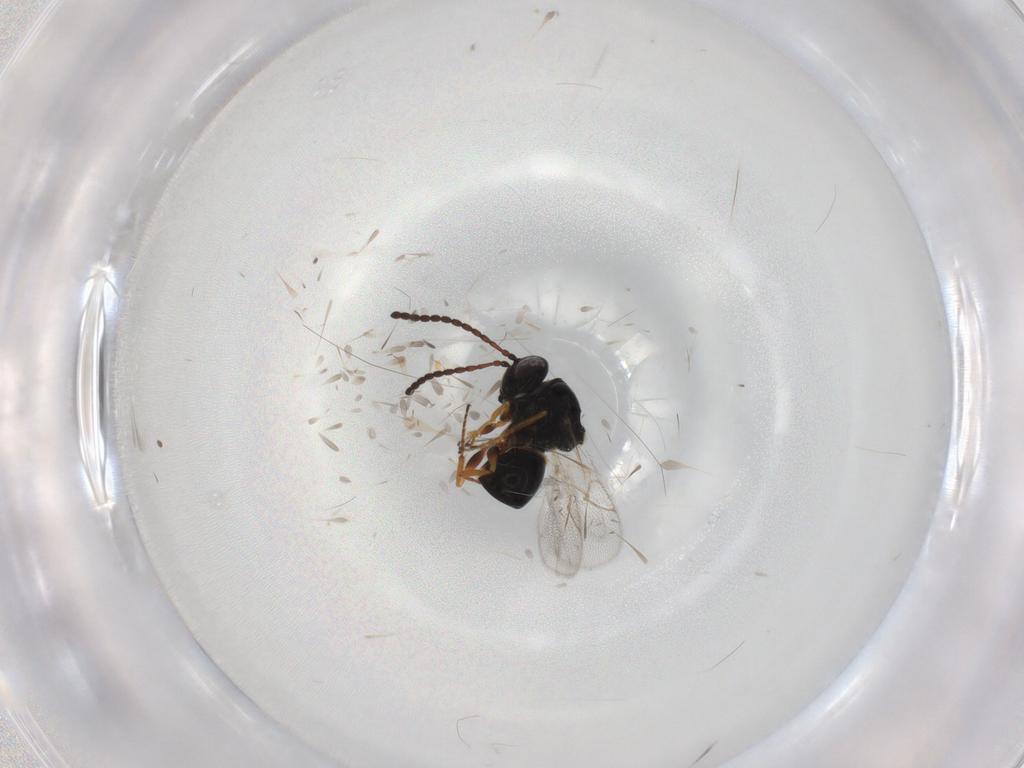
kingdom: Animalia
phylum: Arthropoda
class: Insecta
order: Hymenoptera
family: Figitidae
